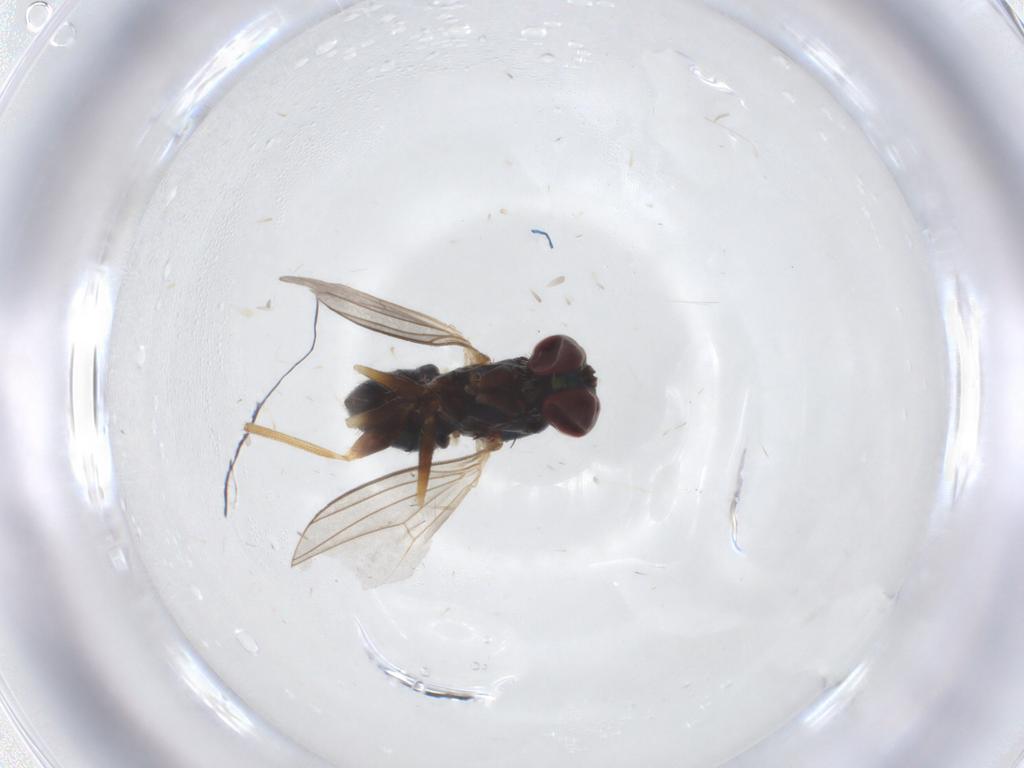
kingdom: Animalia
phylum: Arthropoda
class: Insecta
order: Diptera
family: Dolichopodidae
